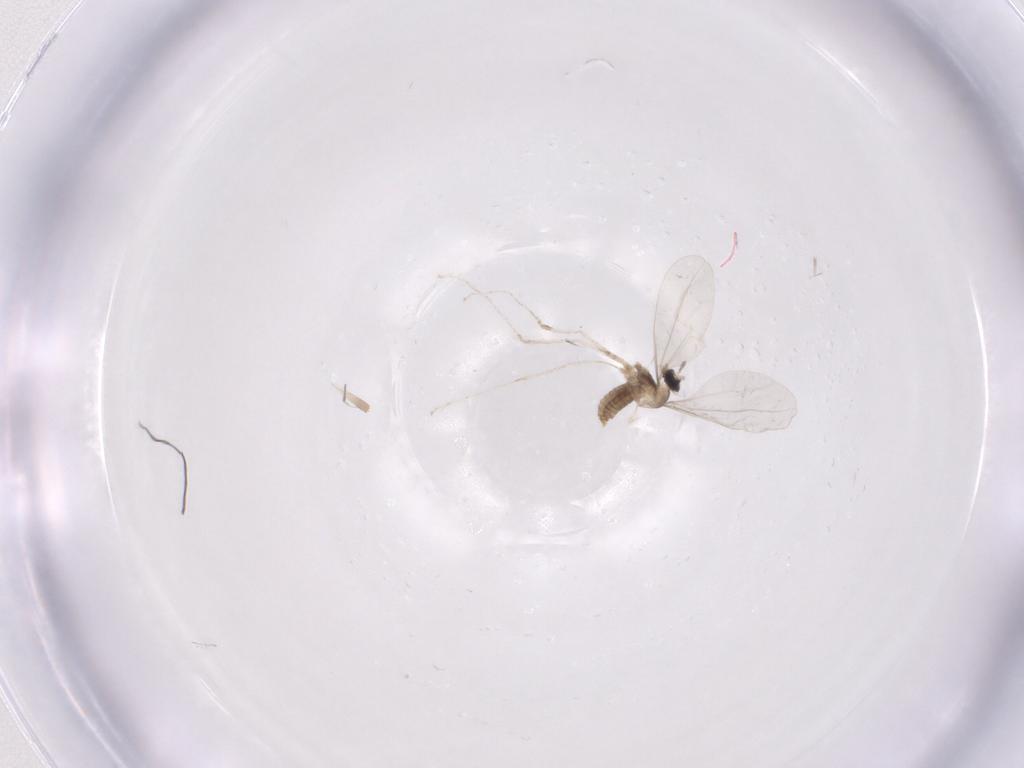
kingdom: Animalia
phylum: Arthropoda
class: Insecta
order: Diptera
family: Cecidomyiidae
